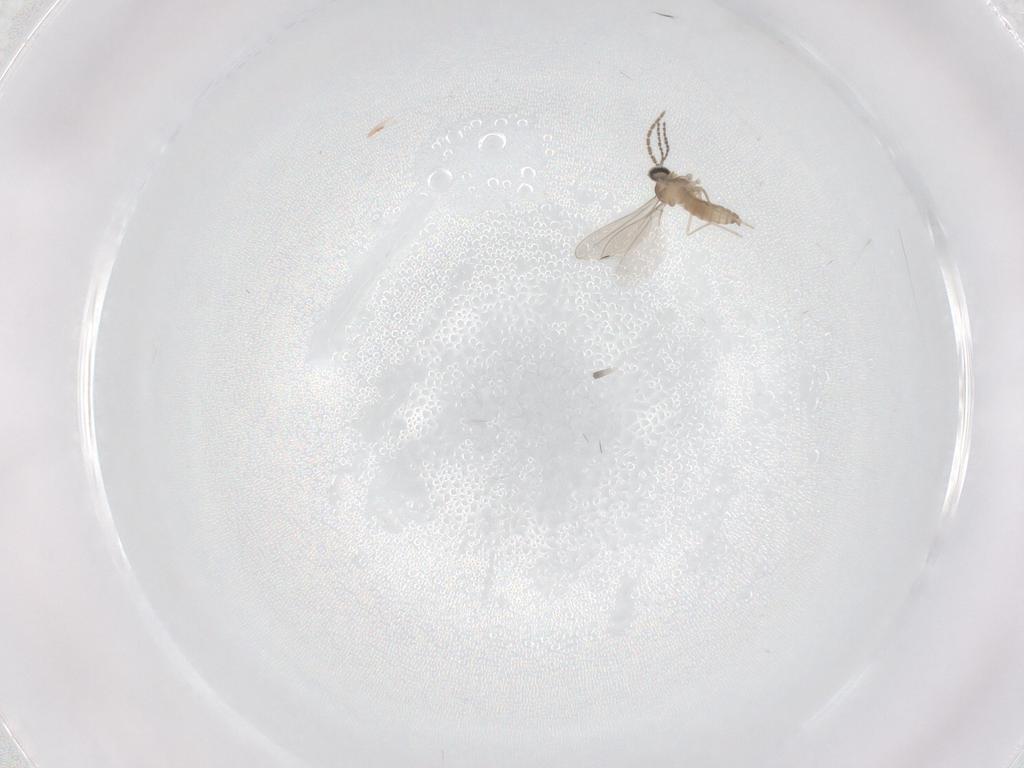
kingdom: Animalia
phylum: Arthropoda
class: Insecta
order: Diptera
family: Cecidomyiidae
